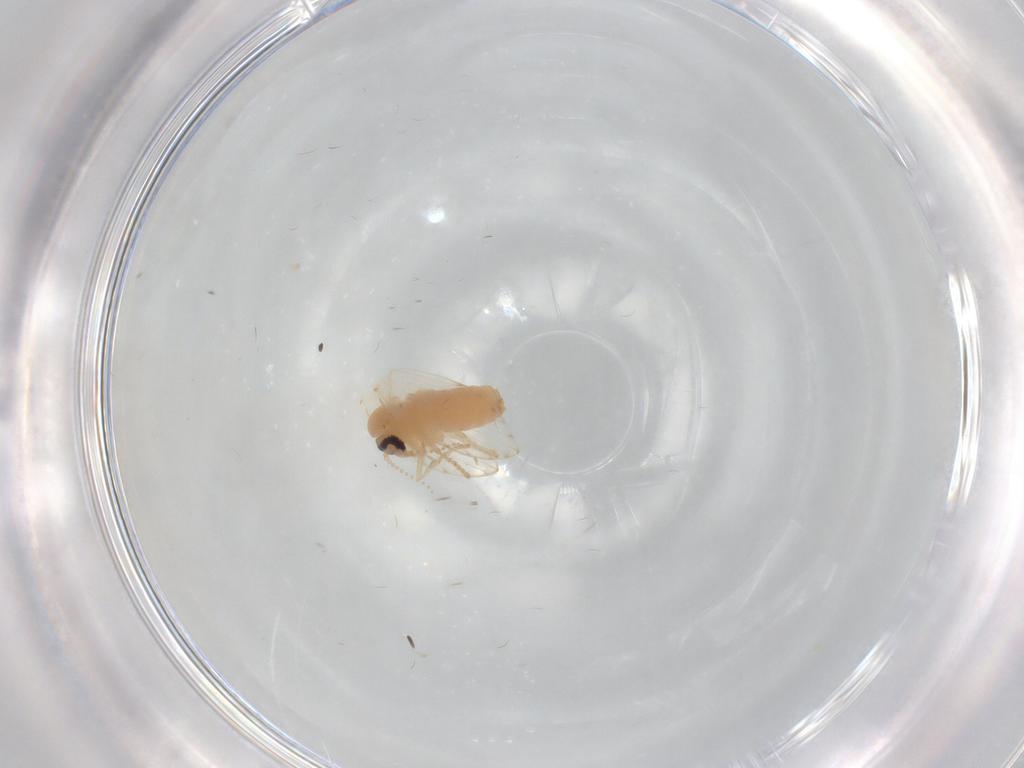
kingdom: Animalia
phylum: Arthropoda
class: Insecta
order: Diptera
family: Psychodidae
